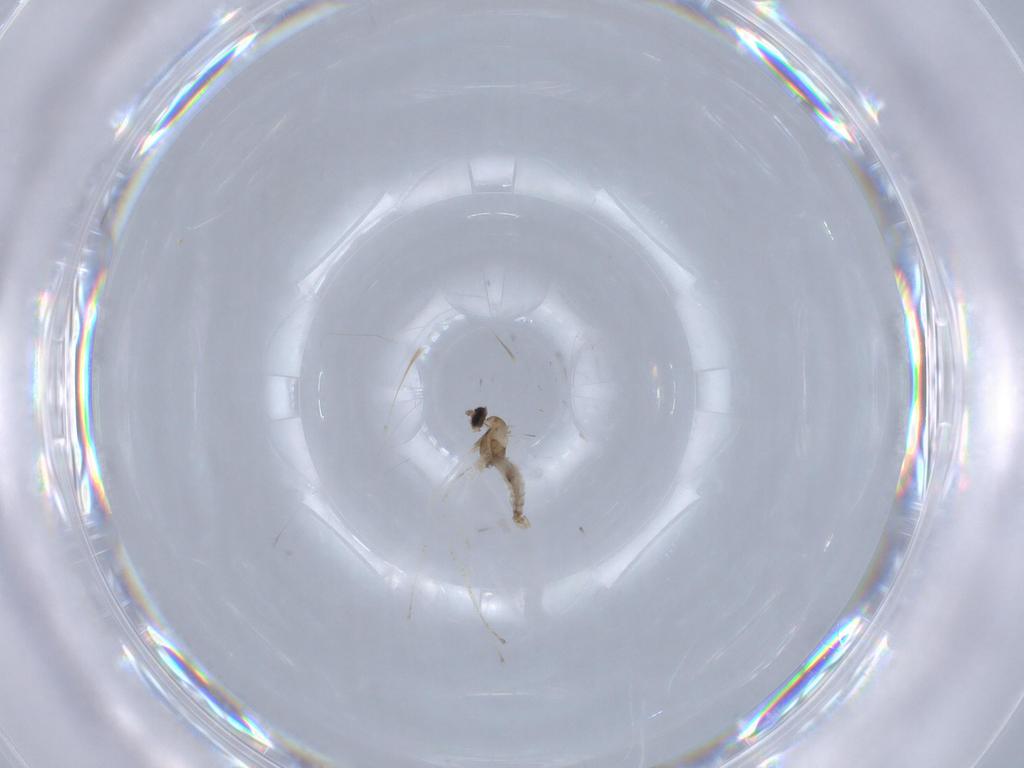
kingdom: Animalia
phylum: Arthropoda
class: Insecta
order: Diptera
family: Cecidomyiidae
